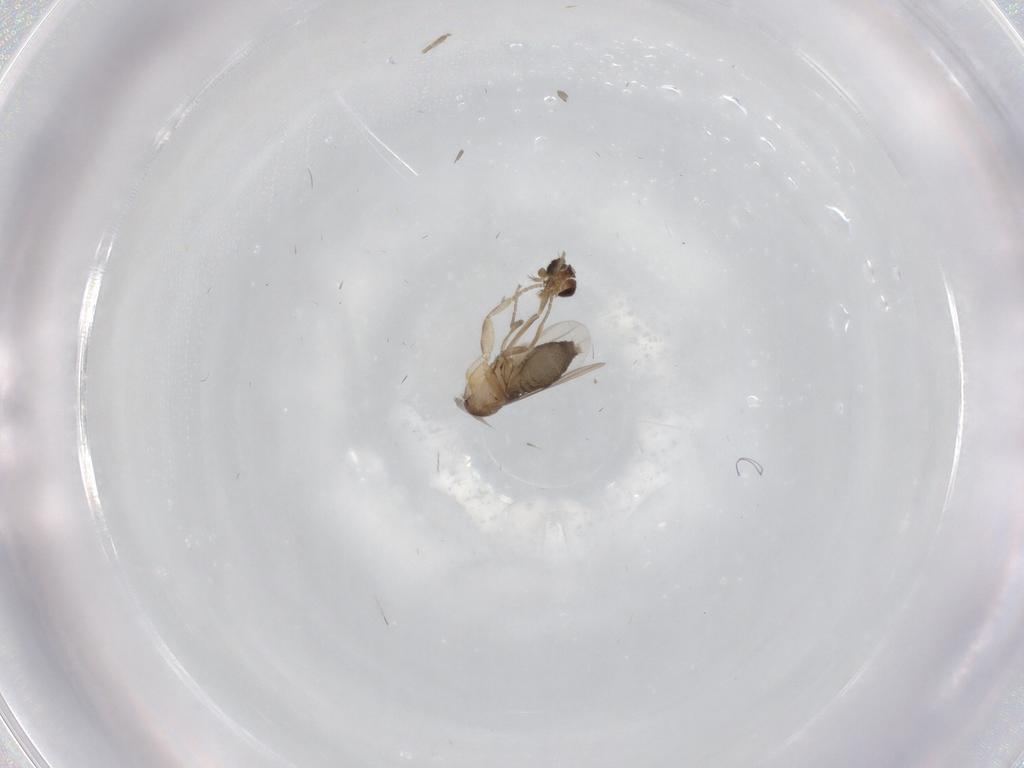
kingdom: Animalia
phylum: Arthropoda
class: Insecta
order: Diptera
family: Phoridae
